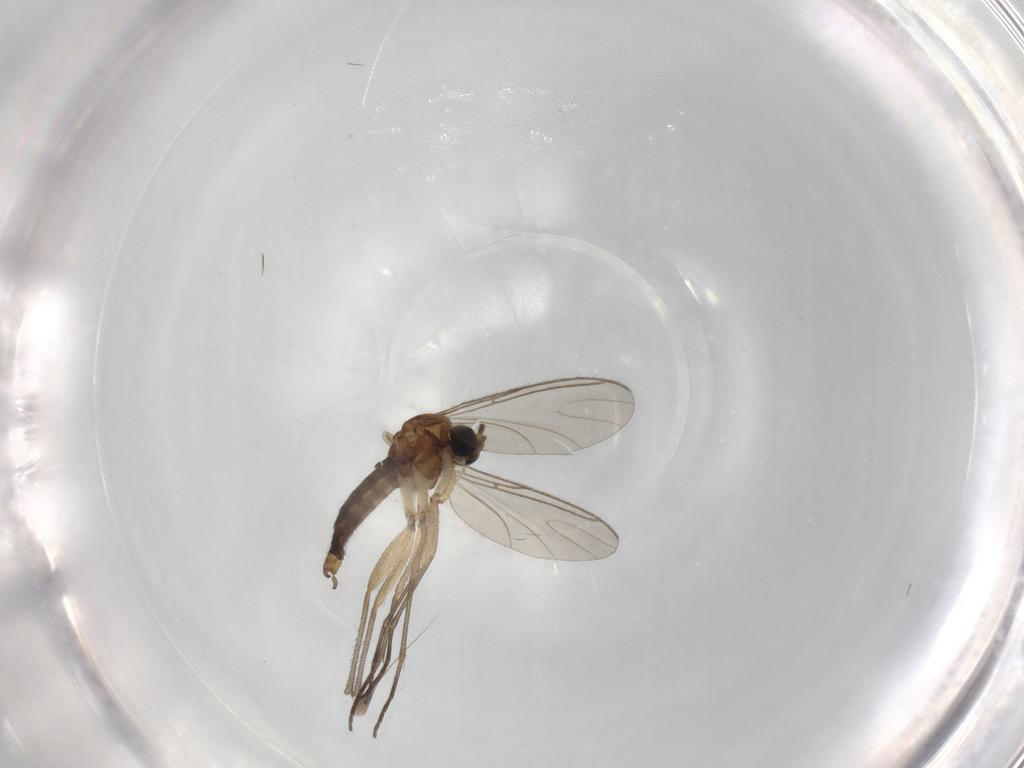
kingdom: Animalia
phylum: Arthropoda
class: Insecta
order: Diptera
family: Sciaridae
